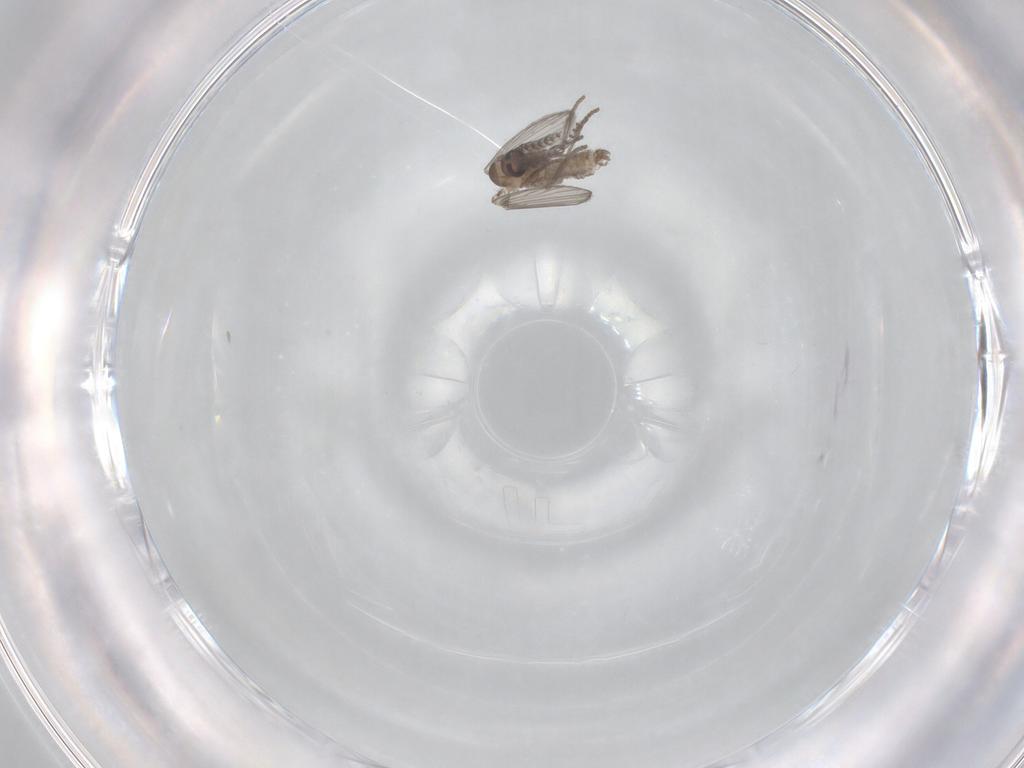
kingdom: Animalia
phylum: Arthropoda
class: Insecta
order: Diptera
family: Psychodidae
